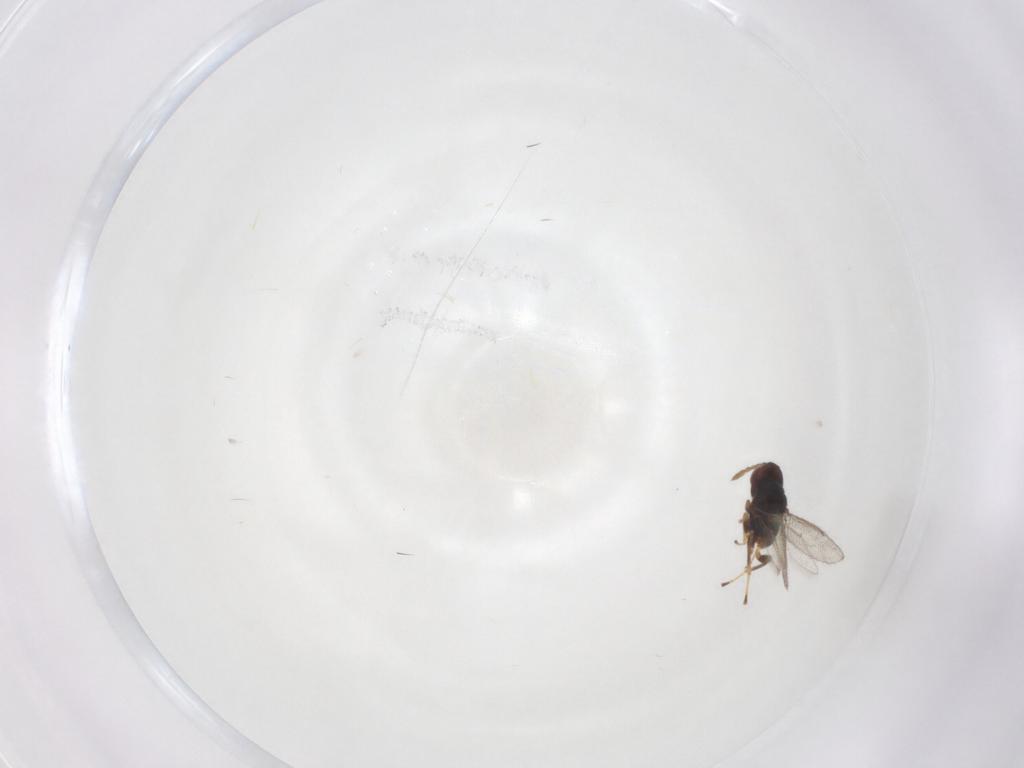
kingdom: Animalia
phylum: Arthropoda
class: Insecta
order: Hymenoptera
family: Eulophidae
